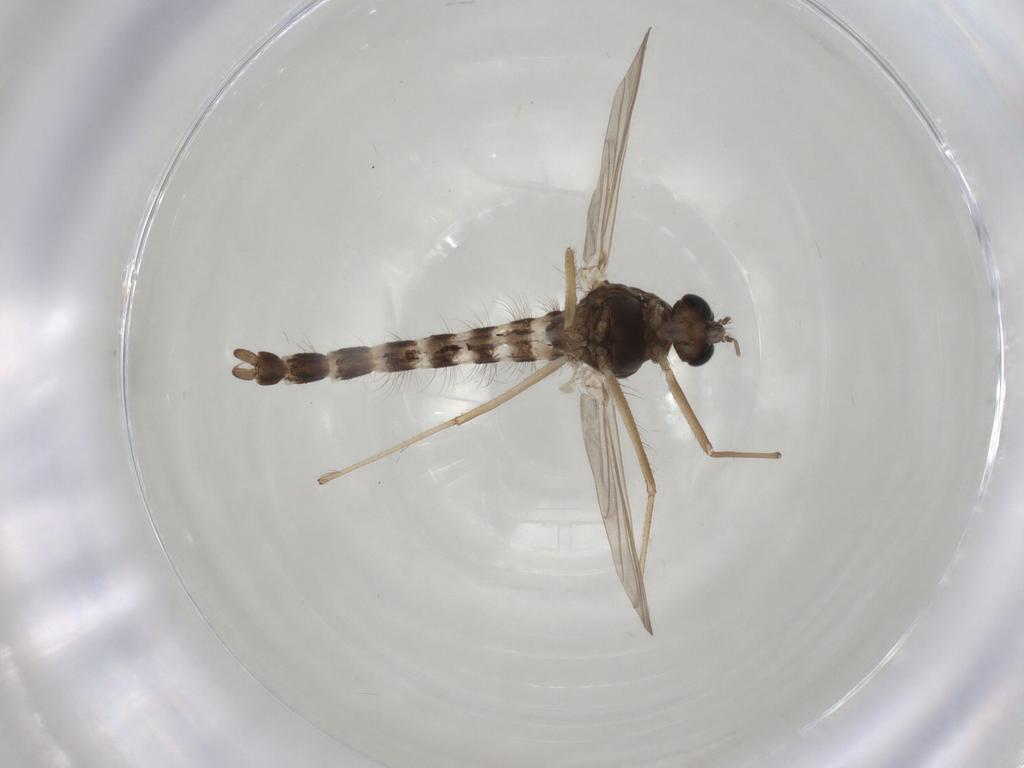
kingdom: Animalia
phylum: Arthropoda
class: Insecta
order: Diptera
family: Chironomidae
